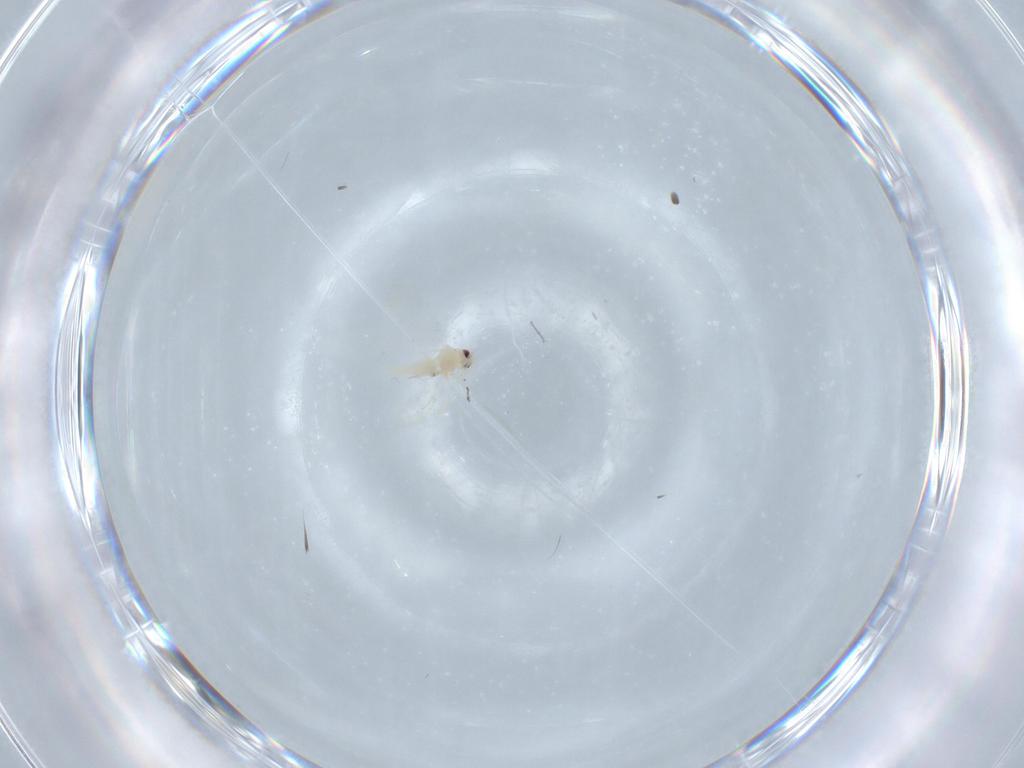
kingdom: Animalia
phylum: Arthropoda
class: Insecta
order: Hemiptera
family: Aleyrodidae
